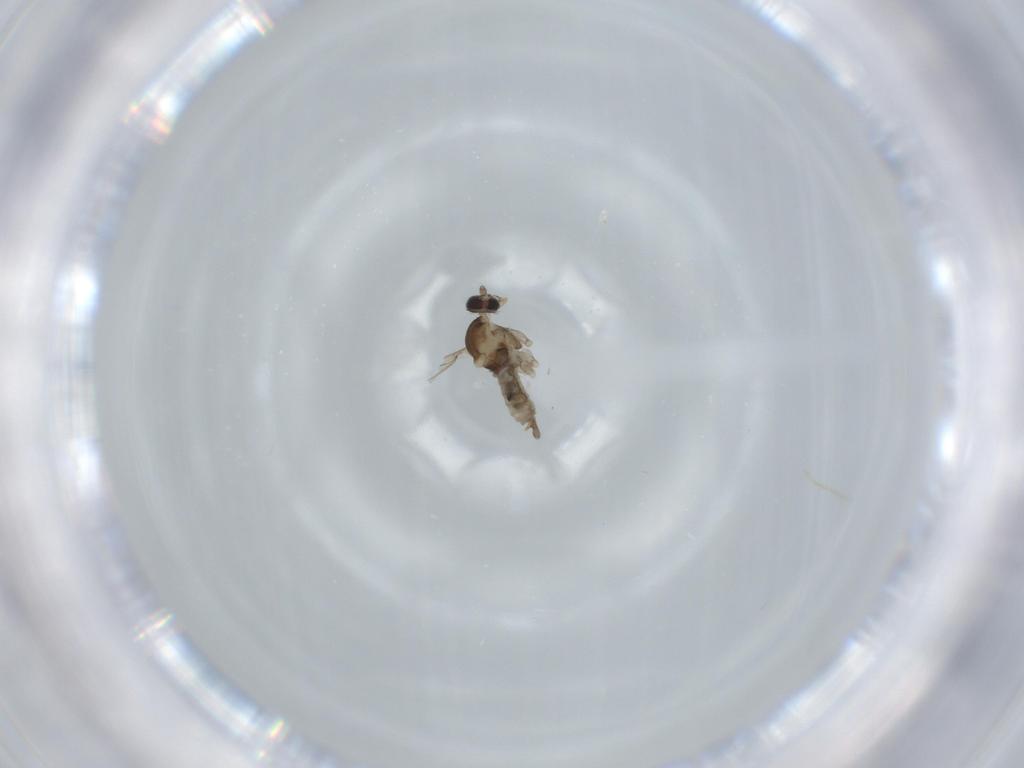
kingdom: Animalia
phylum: Arthropoda
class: Insecta
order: Diptera
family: Cecidomyiidae
